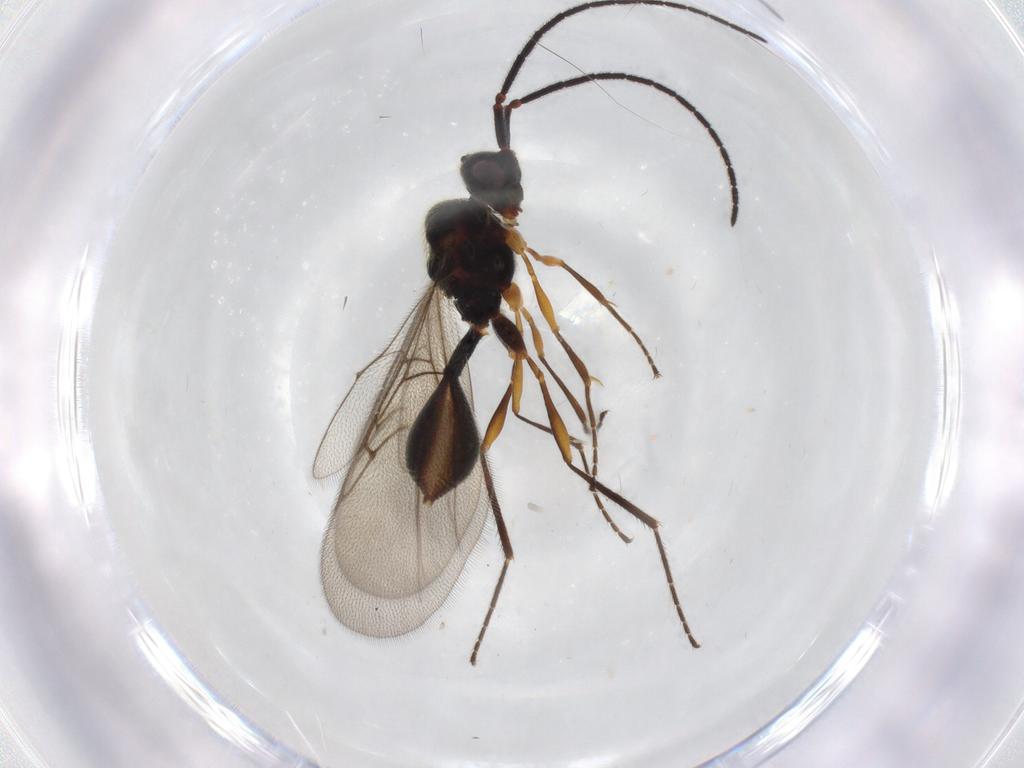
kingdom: Animalia
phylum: Arthropoda
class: Insecta
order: Hymenoptera
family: Diapriidae
